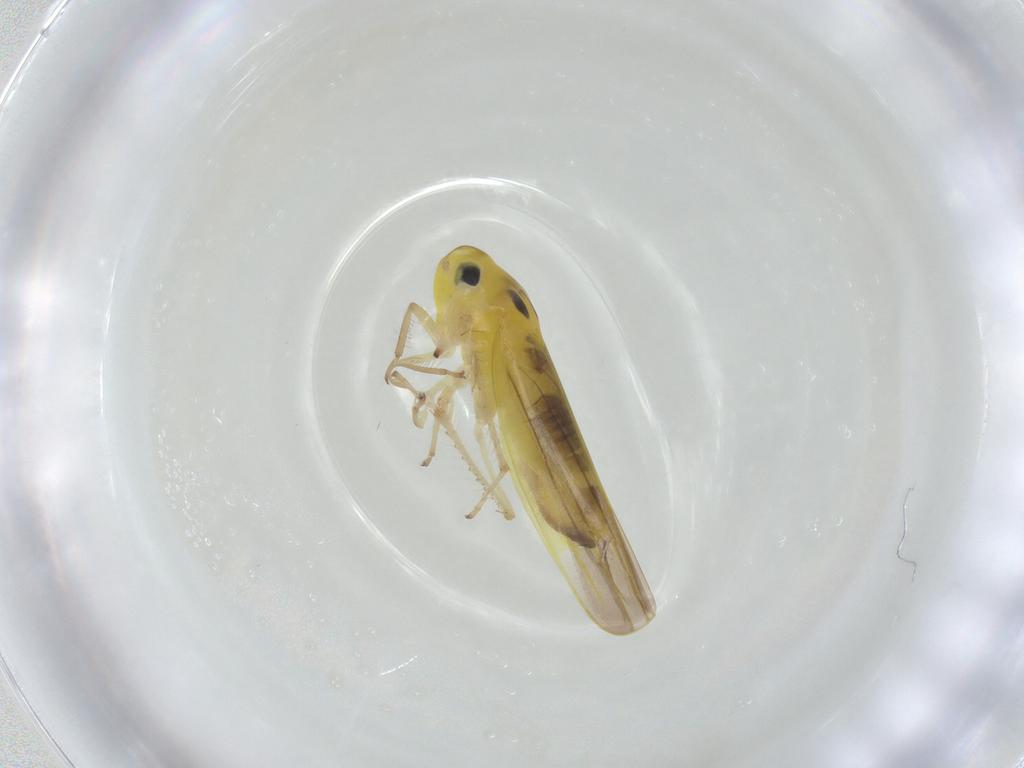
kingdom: Animalia
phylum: Arthropoda
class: Insecta
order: Hemiptera
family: Cicadellidae
